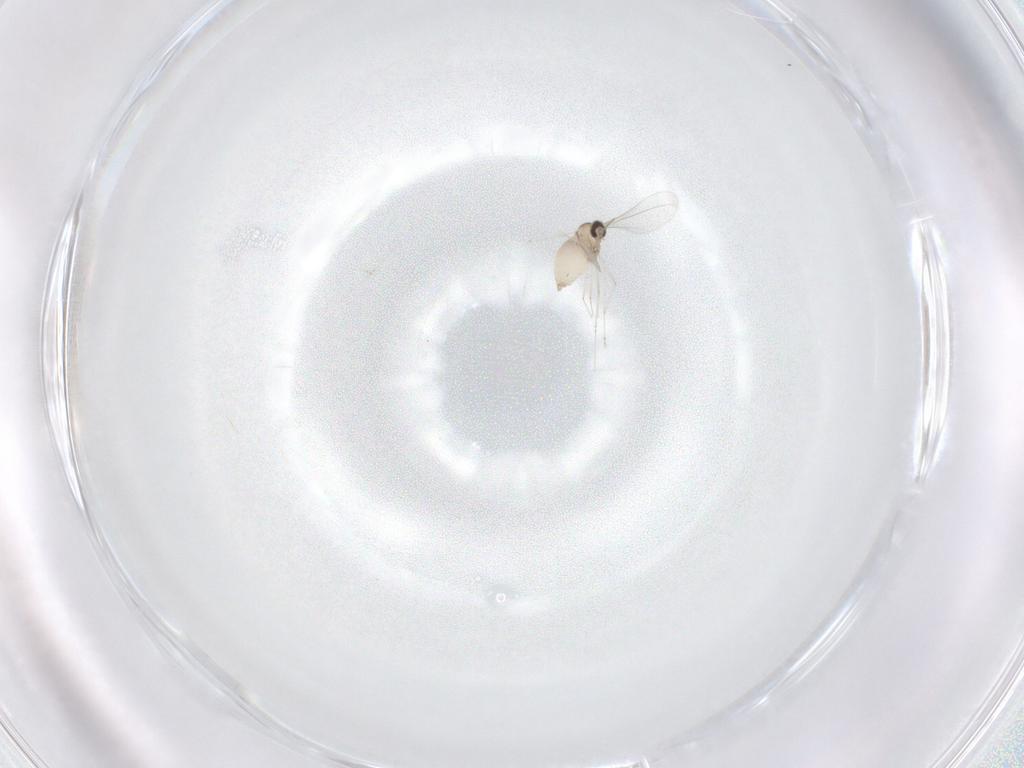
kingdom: Animalia
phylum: Arthropoda
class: Insecta
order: Diptera
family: Cecidomyiidae
